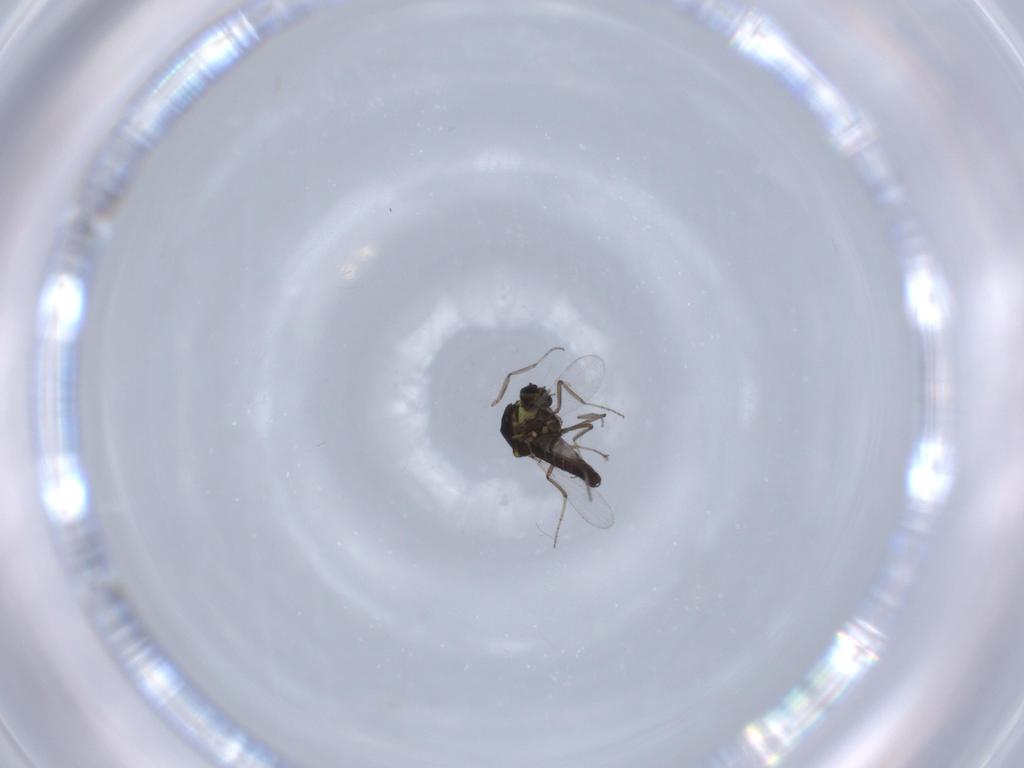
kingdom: Animalia
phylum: Arthropoda
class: Insecta
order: Diptera
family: Ceratopogonidae
